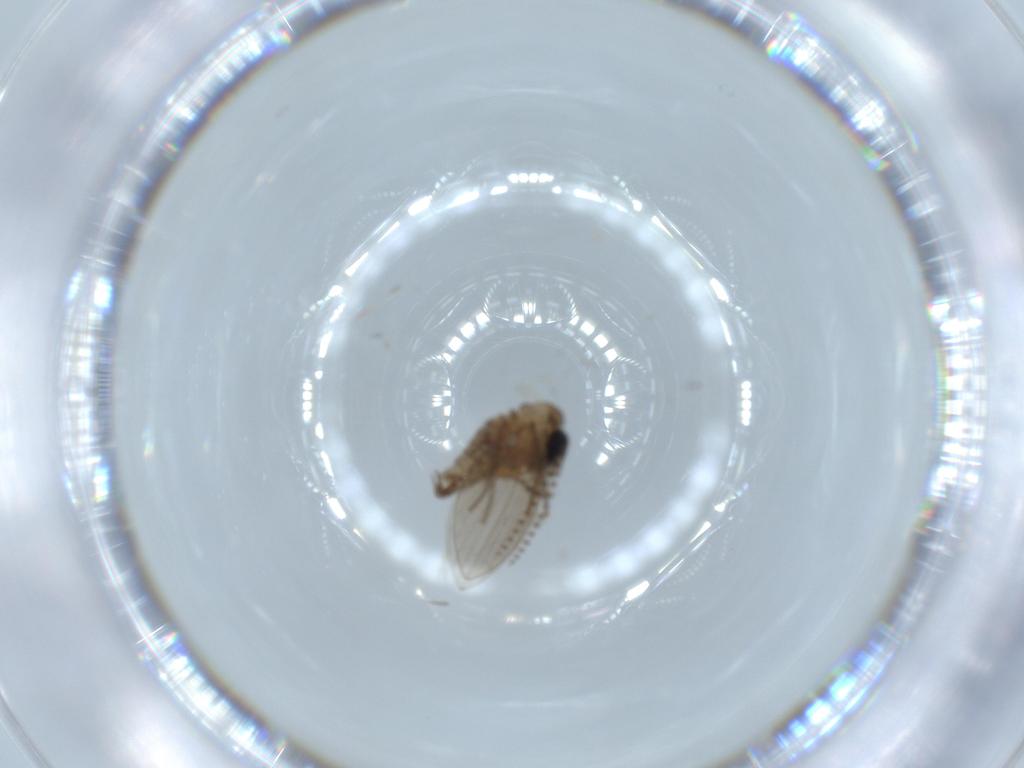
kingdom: Animalia
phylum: Arthropoda
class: Insecta
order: Diptera
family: Psychodidae
